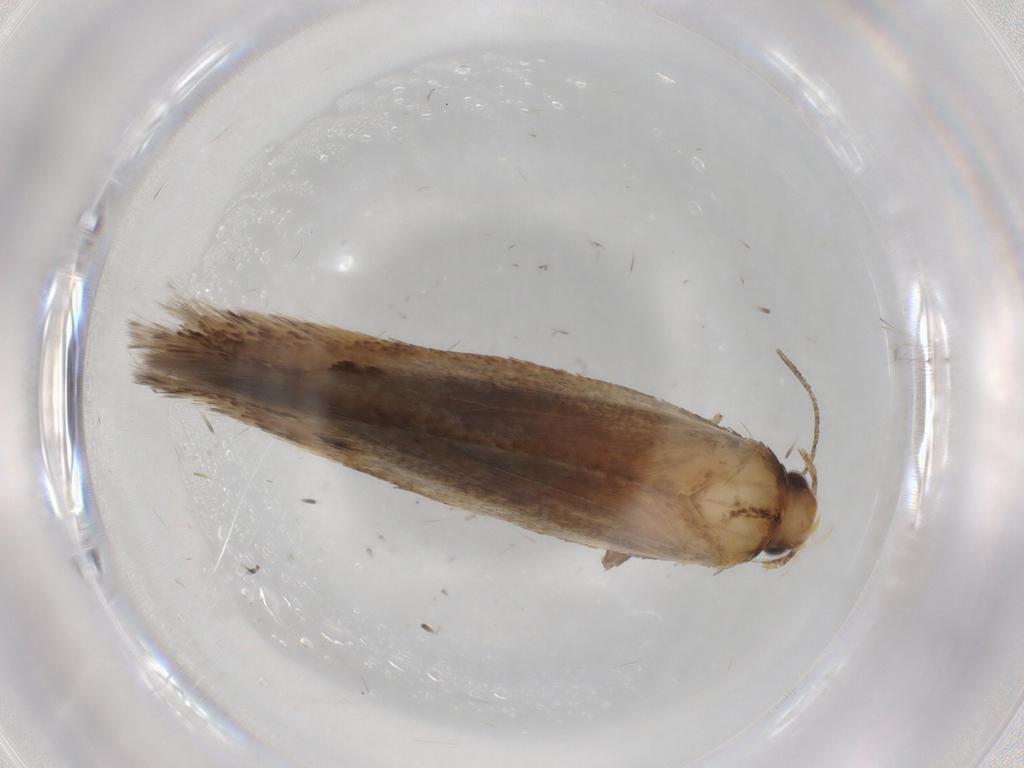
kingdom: Animalia
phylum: Arthropoda
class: Insecta
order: Lepidoptera
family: Gelechiidae
